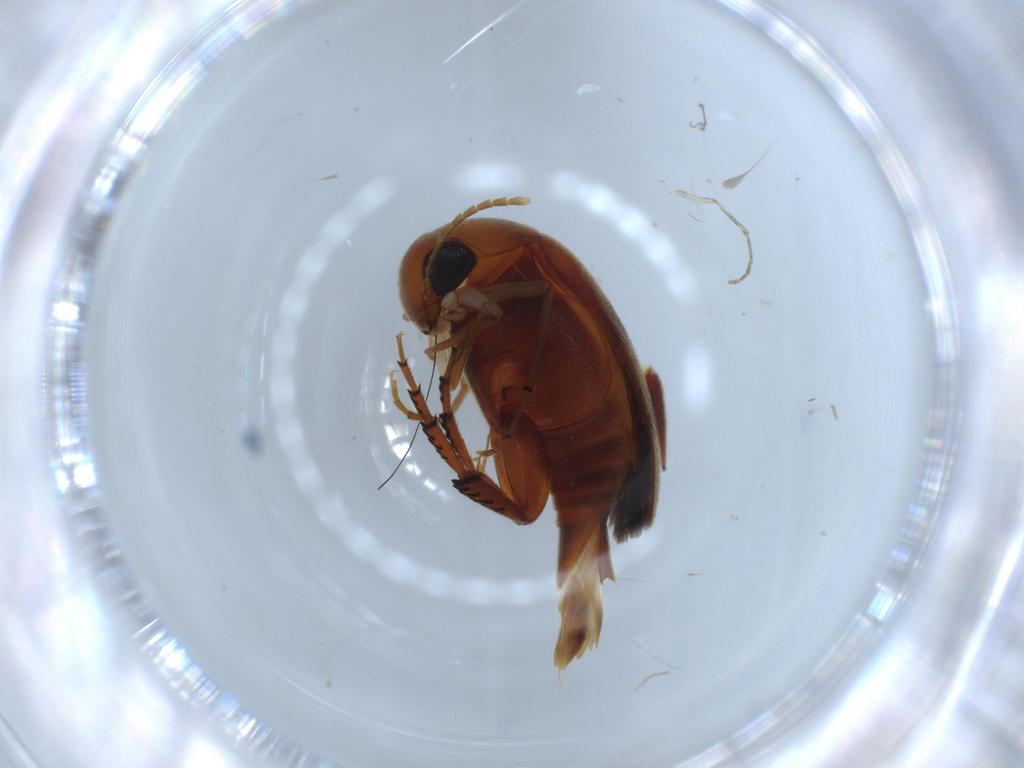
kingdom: Animalia
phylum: Arthropoda
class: Insecta
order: Coleoptera
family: Aderidae
